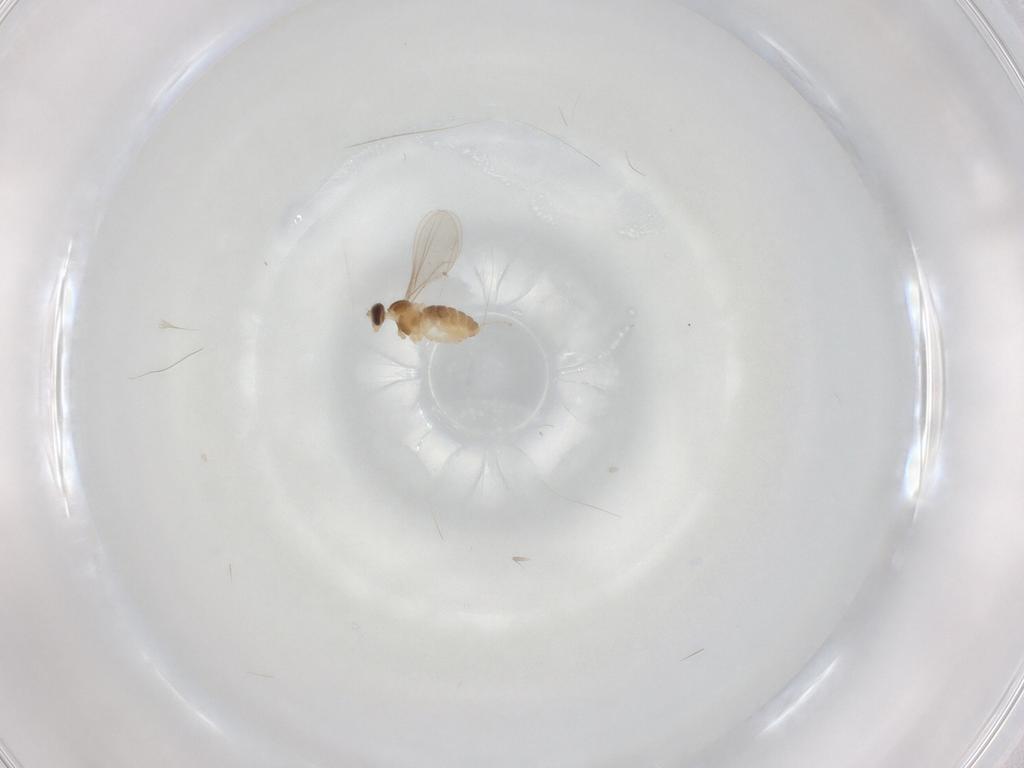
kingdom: Animalia
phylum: Arthropoda
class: Insecta
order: Diptera
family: Cecidomyiidae
